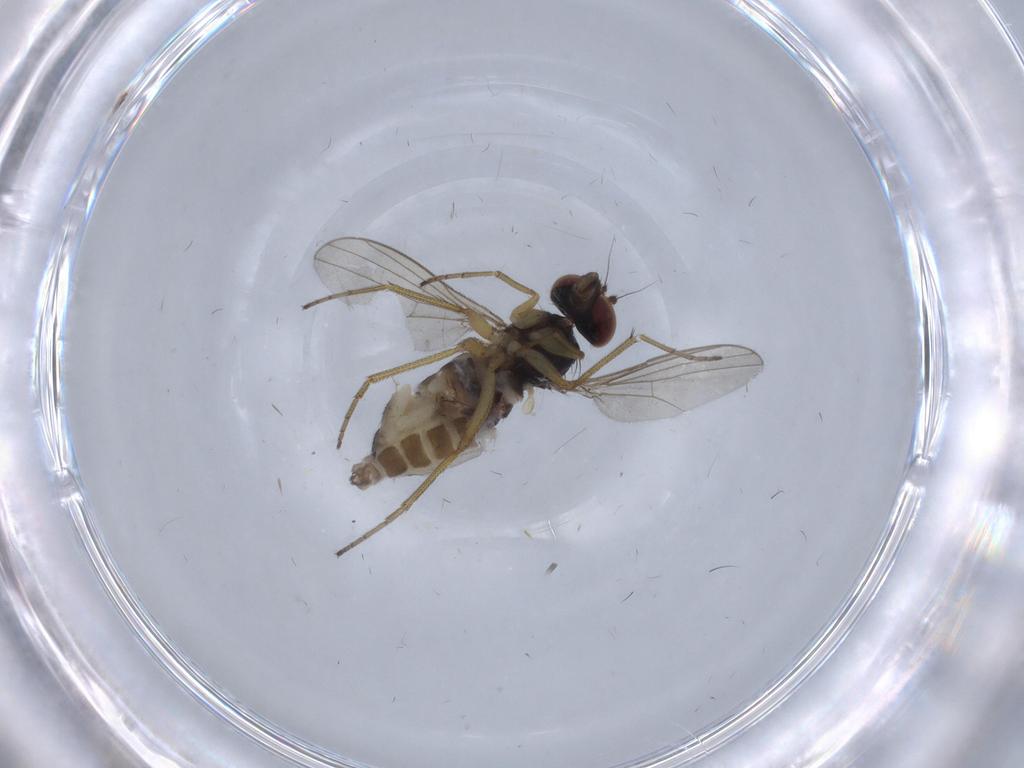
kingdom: Animalia
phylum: Arthropoda
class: Insecta
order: Diptera
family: Dolichopodidae
